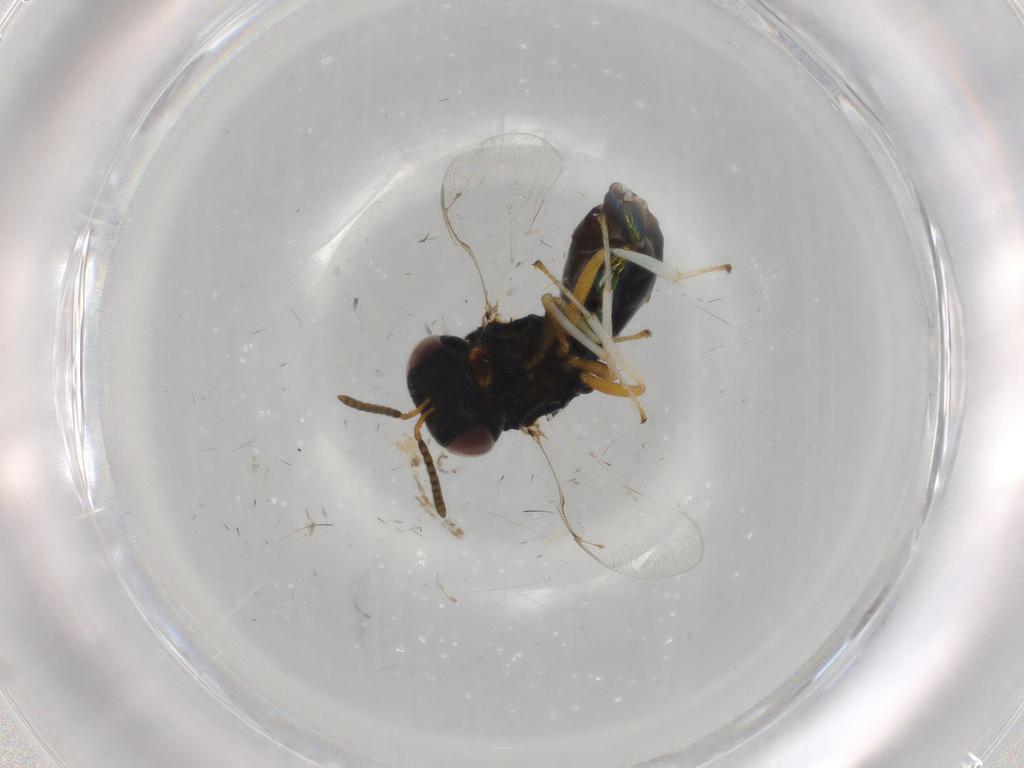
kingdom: Animalia
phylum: Arthropoda
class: Insecta
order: Hymenoptera
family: Pteromalidae
